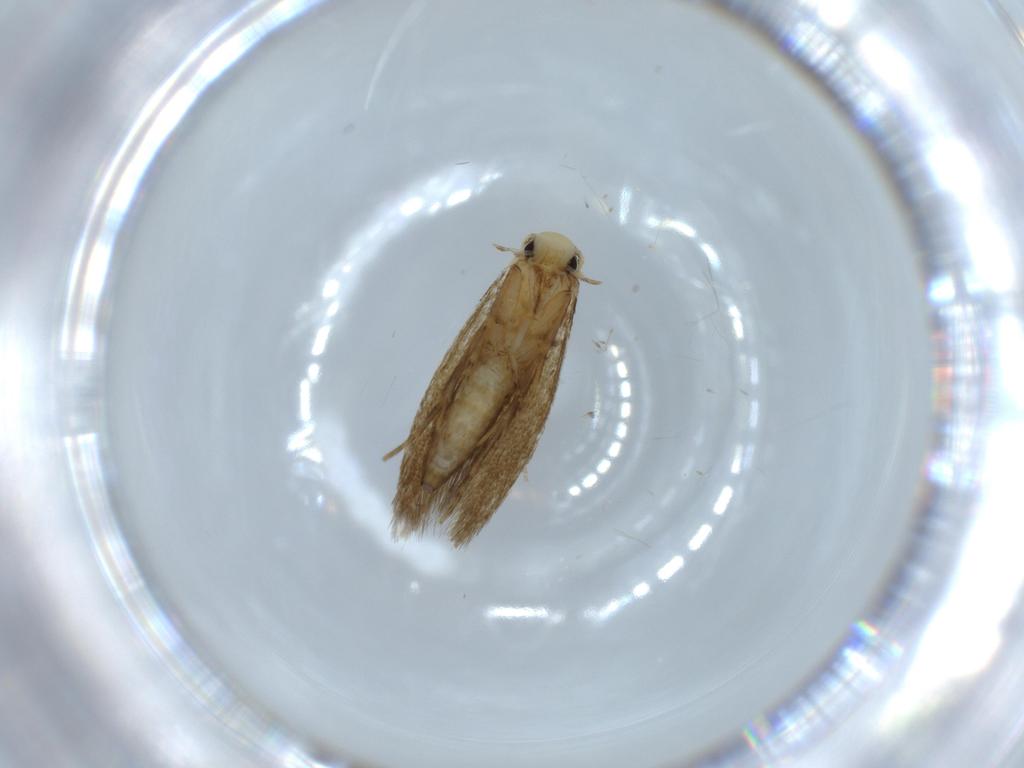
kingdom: Animalia
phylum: Arthropoda
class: Insecta
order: Lepidoptera
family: Tineidae
